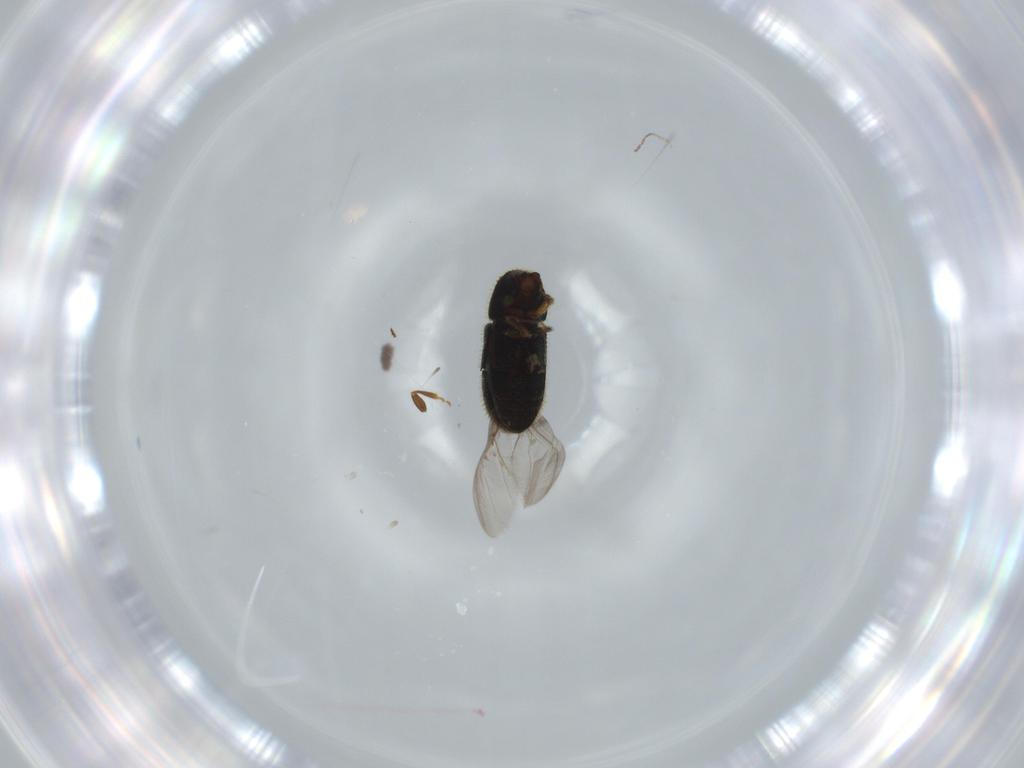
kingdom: Animalia
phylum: Arthropoda
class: Insecta
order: Coleoptera
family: Curculionidae
